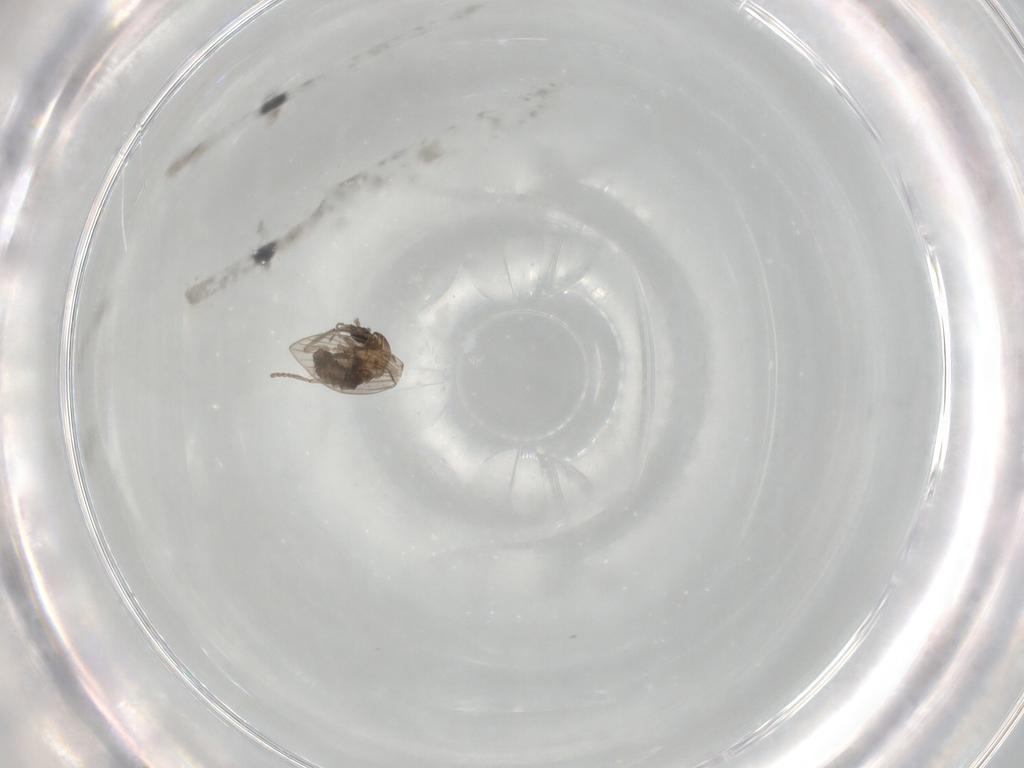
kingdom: Animalia
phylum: Arthropoda
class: Insecta
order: Diptera
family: Psychodidae
